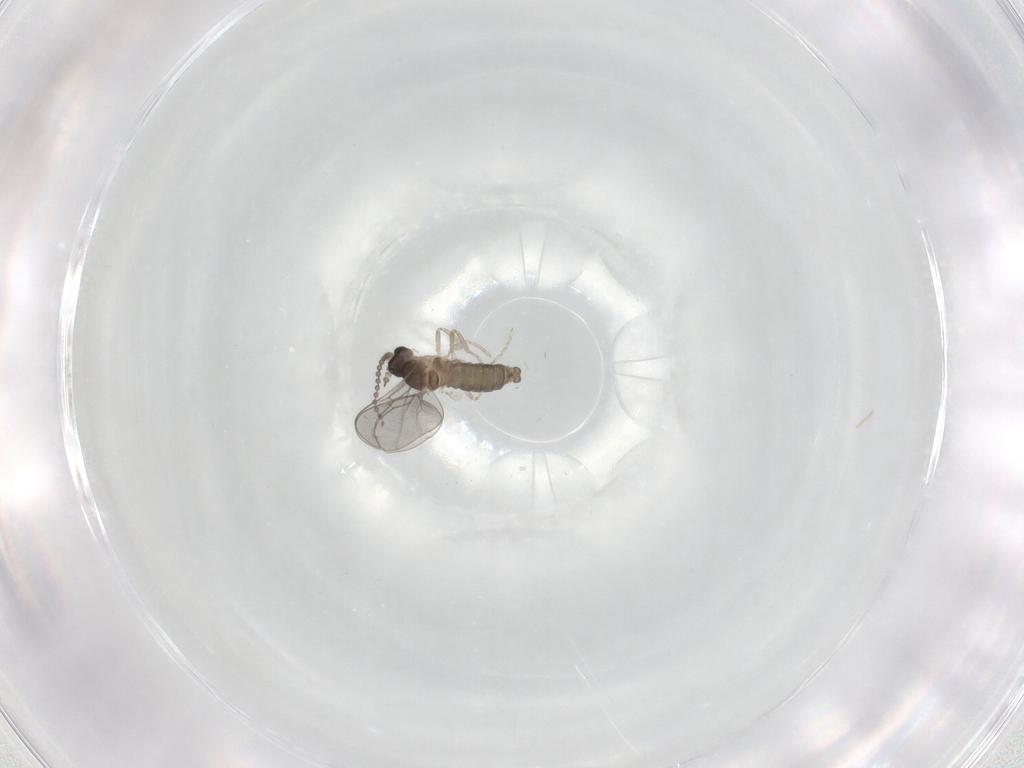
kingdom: Animalia
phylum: Arthropoda
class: Insecta
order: Diptera
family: Cecidomyiidae
